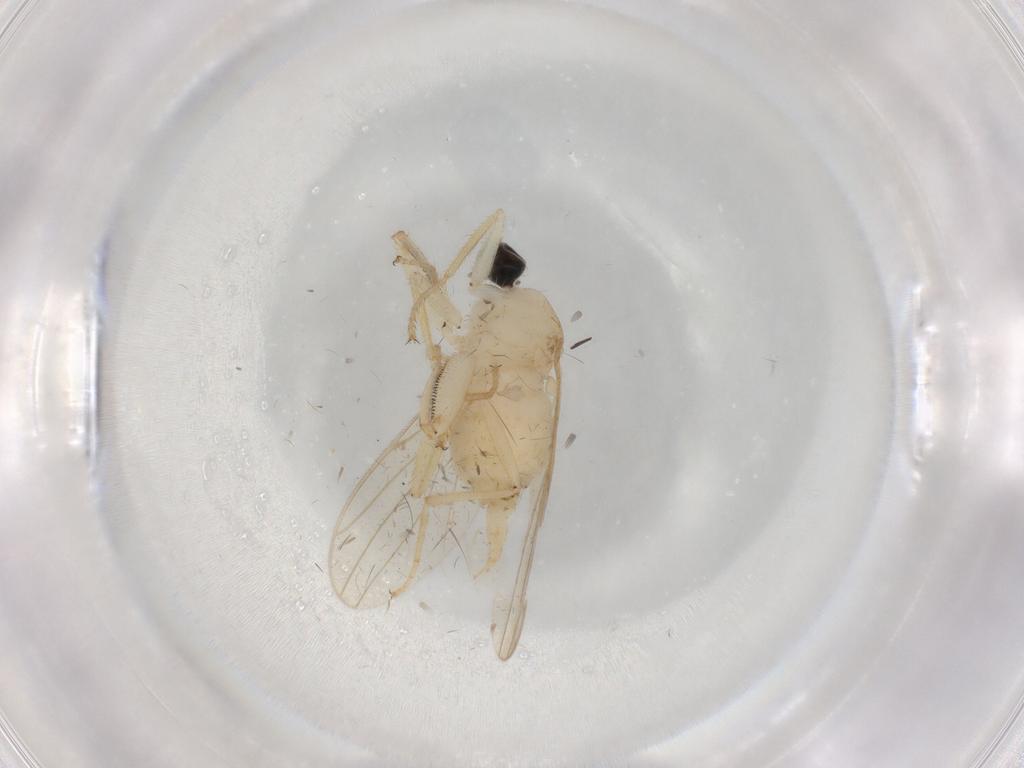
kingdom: Animalia
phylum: Arthropoda
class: Insecta
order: Diptera
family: Hybotidae
